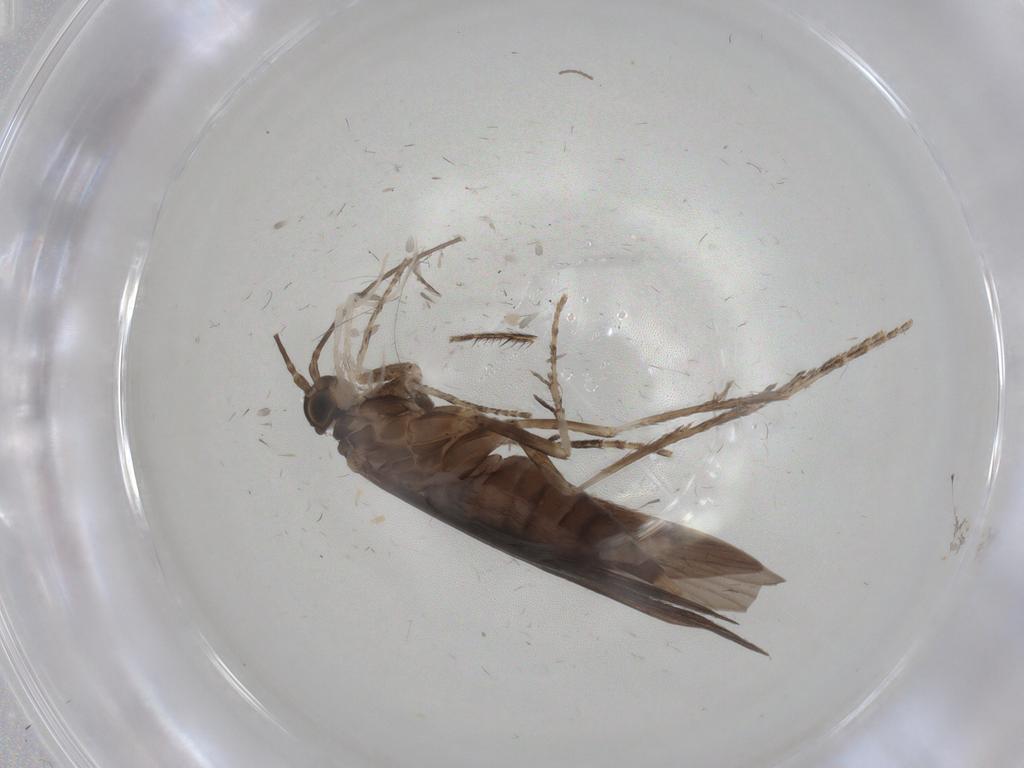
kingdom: Animalia
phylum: Arthropoda
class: Insecta
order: Trichoptera
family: Xiphocentronidae
